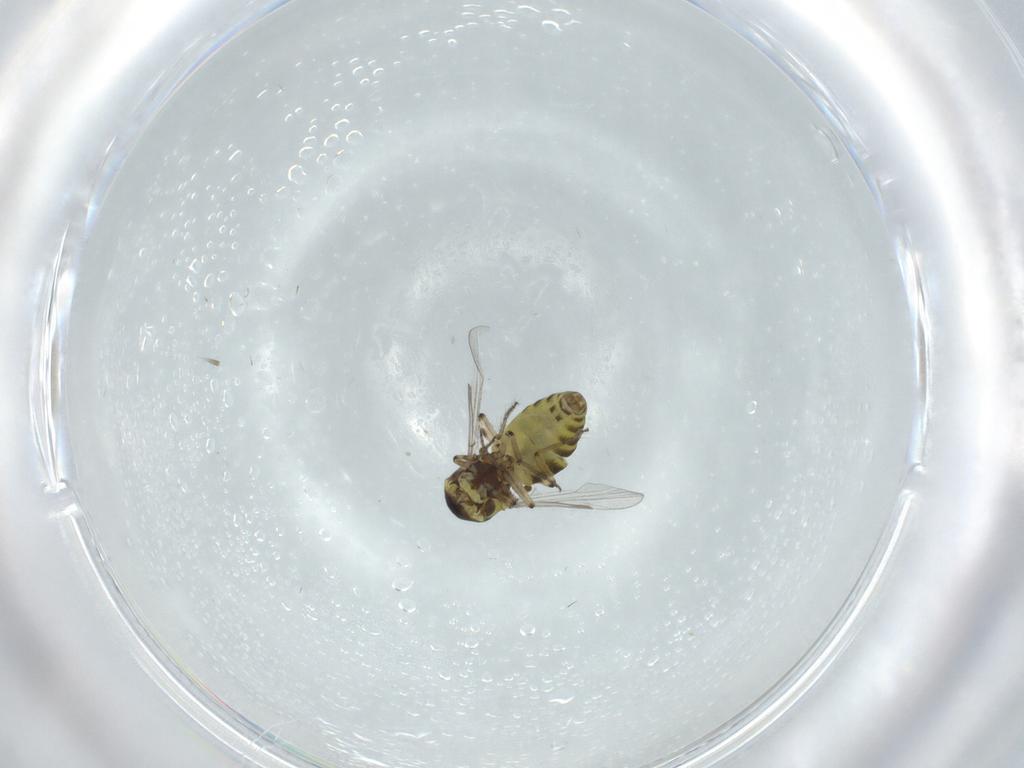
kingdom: Animalia
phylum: Arthropoda
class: Insecta
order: Diptera
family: Ceratopogonidae
